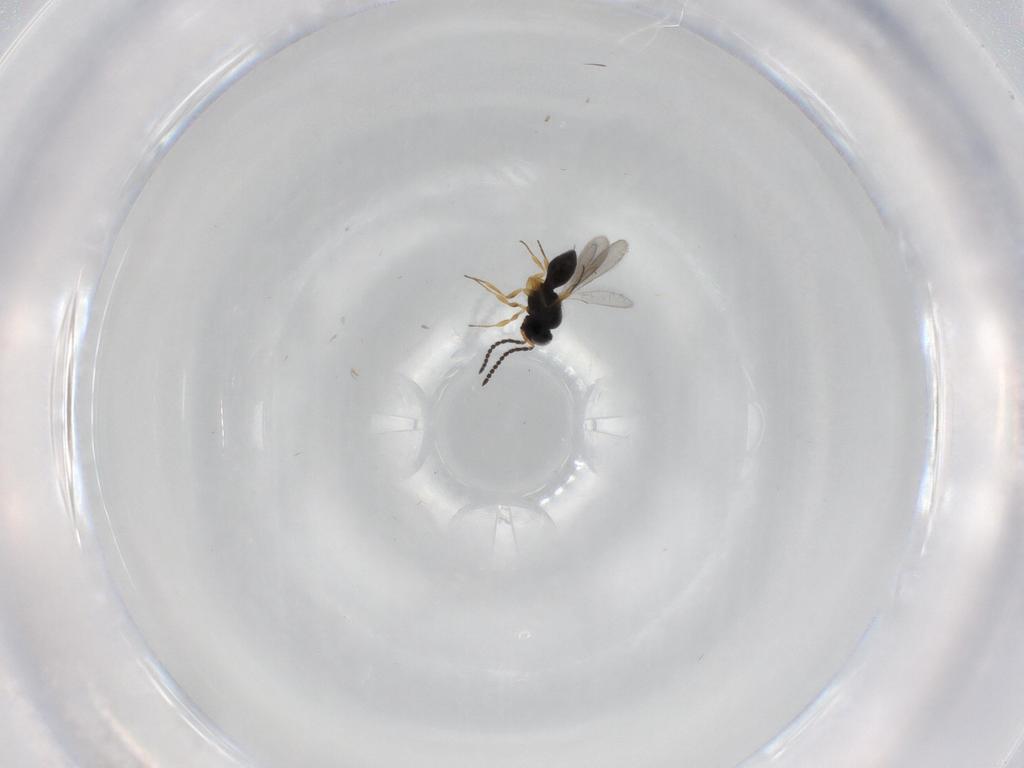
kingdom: Animalia
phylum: Arthropoda
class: Insecta
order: Hymenoptera
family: Scelionidae
